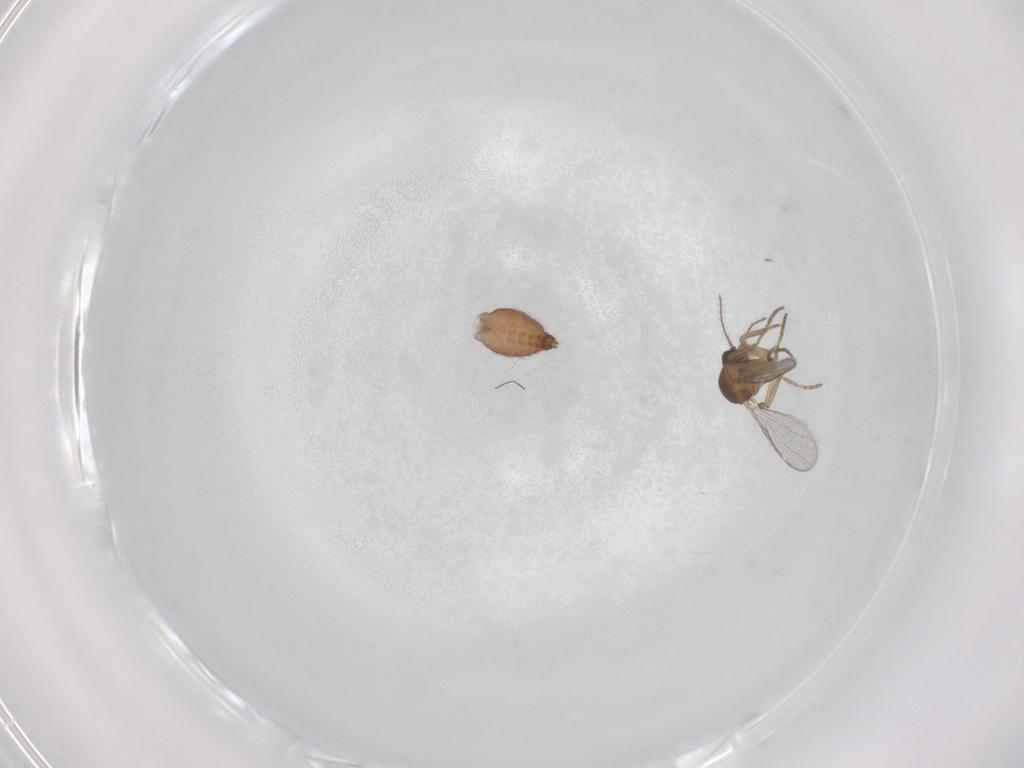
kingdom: Animalia
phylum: Arthropoda
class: Insecta
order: Diptera
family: Ceratopogonidae
